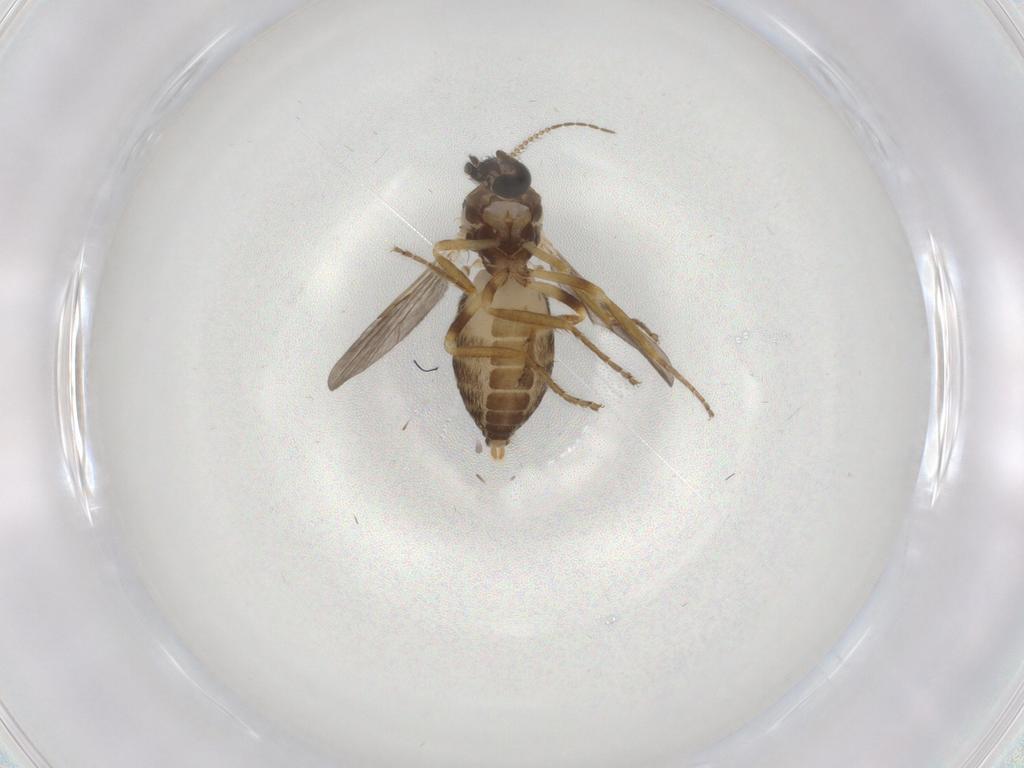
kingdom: Animalia
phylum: Arthropoda
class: Insecta
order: Diptera
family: Ceratopogonidae
